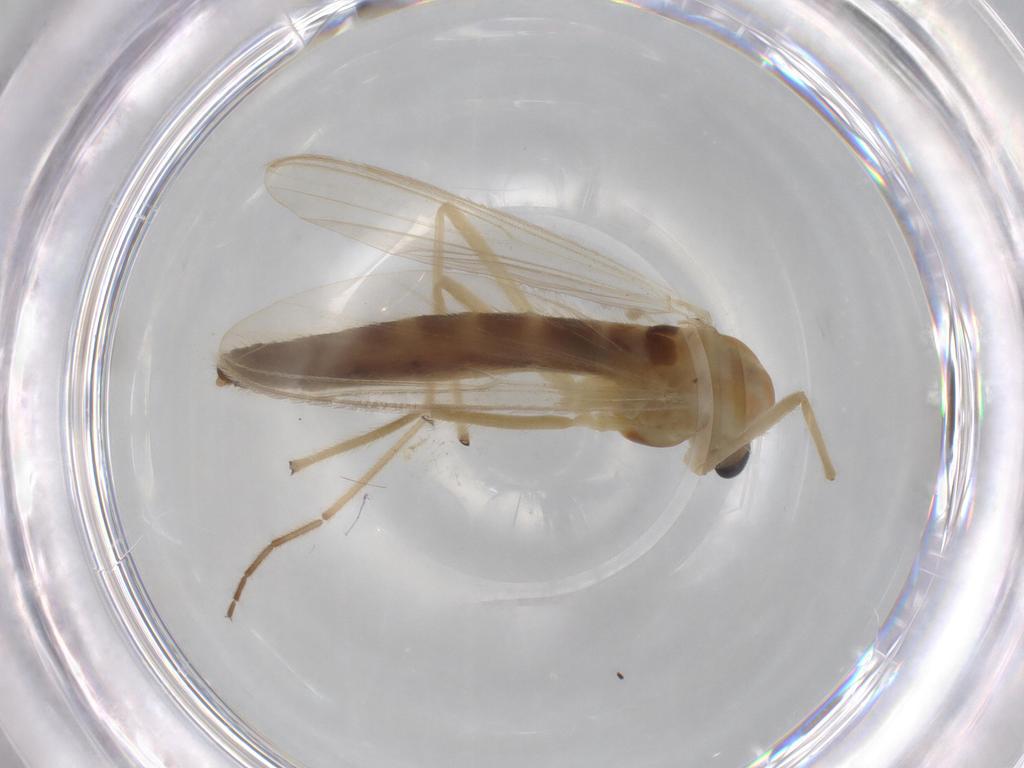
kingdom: Animalia
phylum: Arthropoda
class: Insecta
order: Diptera
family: Chironomidae
